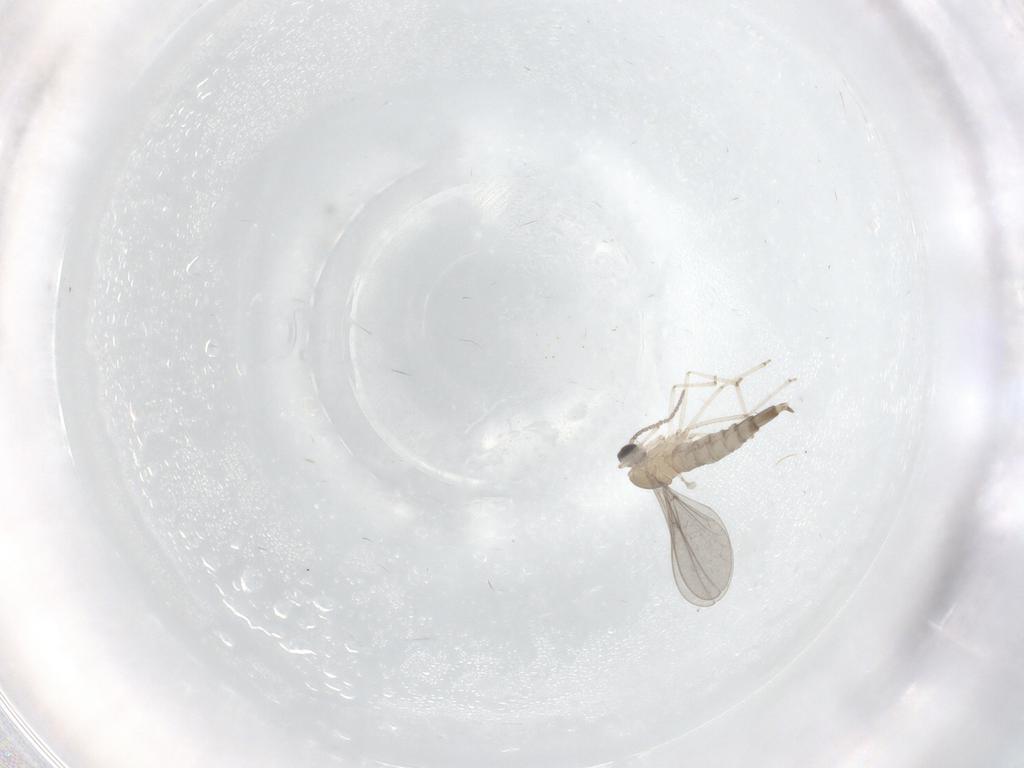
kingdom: Animalia
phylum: Arthropoda
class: Insecta
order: Diptera
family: Cecidomyiidae
